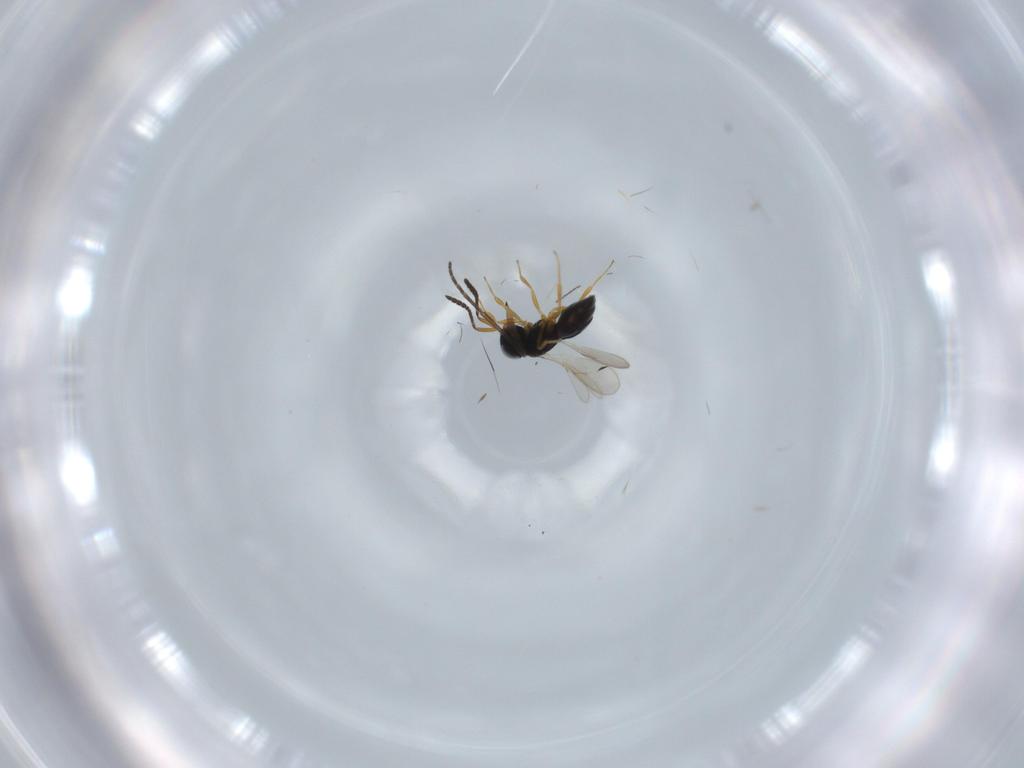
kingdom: Animalia
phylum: Arthropoda
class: Insecta
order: Hymenoptera
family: Scelionidae
